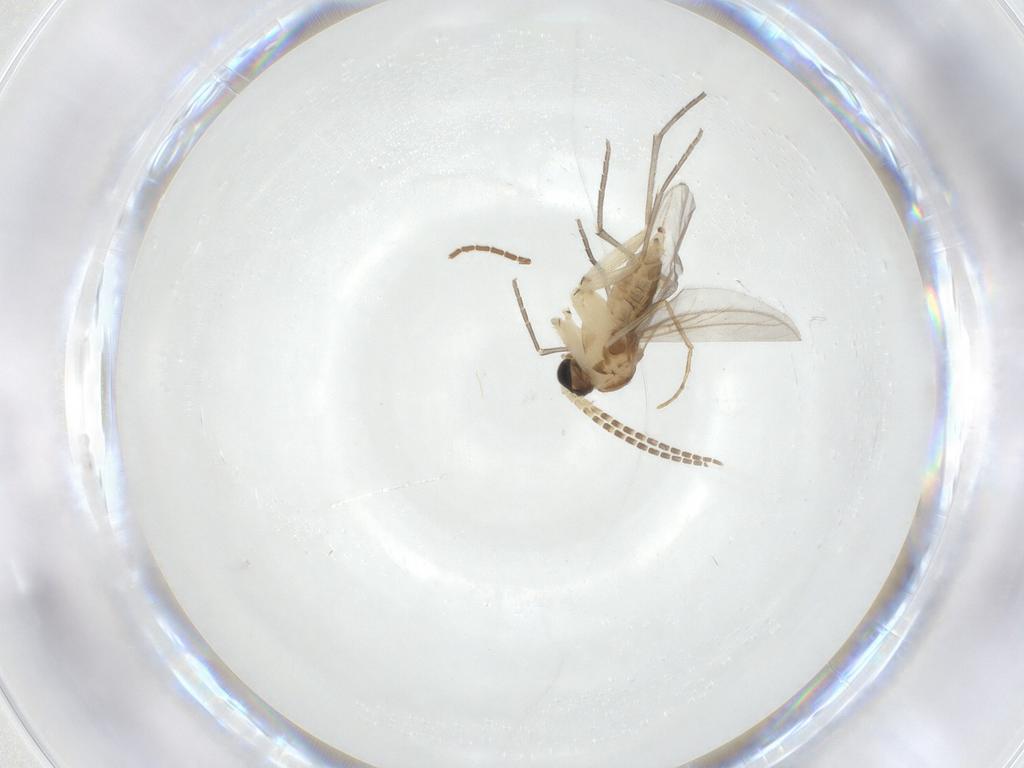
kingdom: Animalia
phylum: Arthropoda
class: Insecta
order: Diptera
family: Sciaridae
